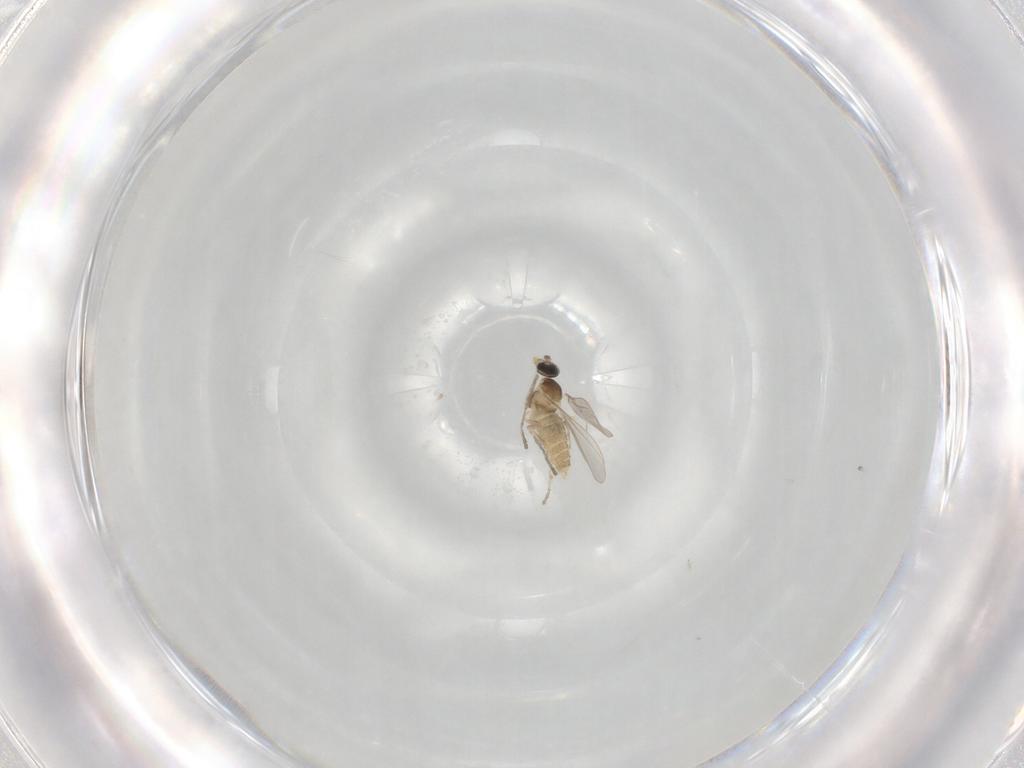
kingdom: Animalia
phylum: Arthropoda
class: Insecta
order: Diptera
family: Cecidomyiidae
